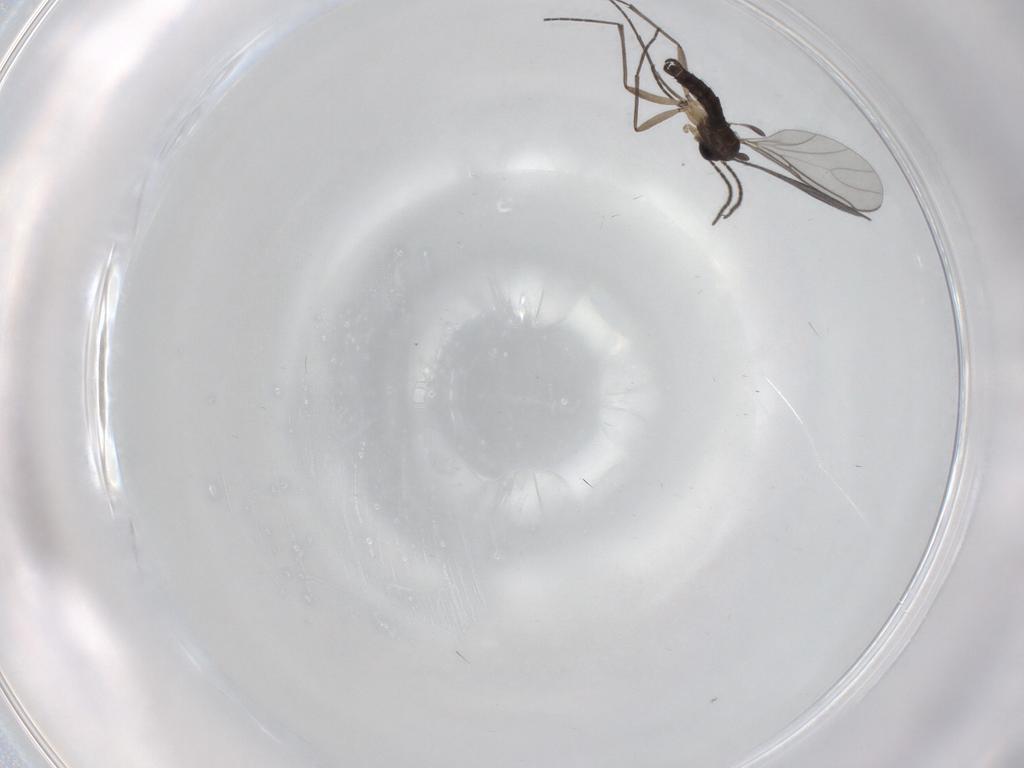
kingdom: Animalia
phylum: Arthropoda
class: Insecta
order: Diptera
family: Sciaridae
